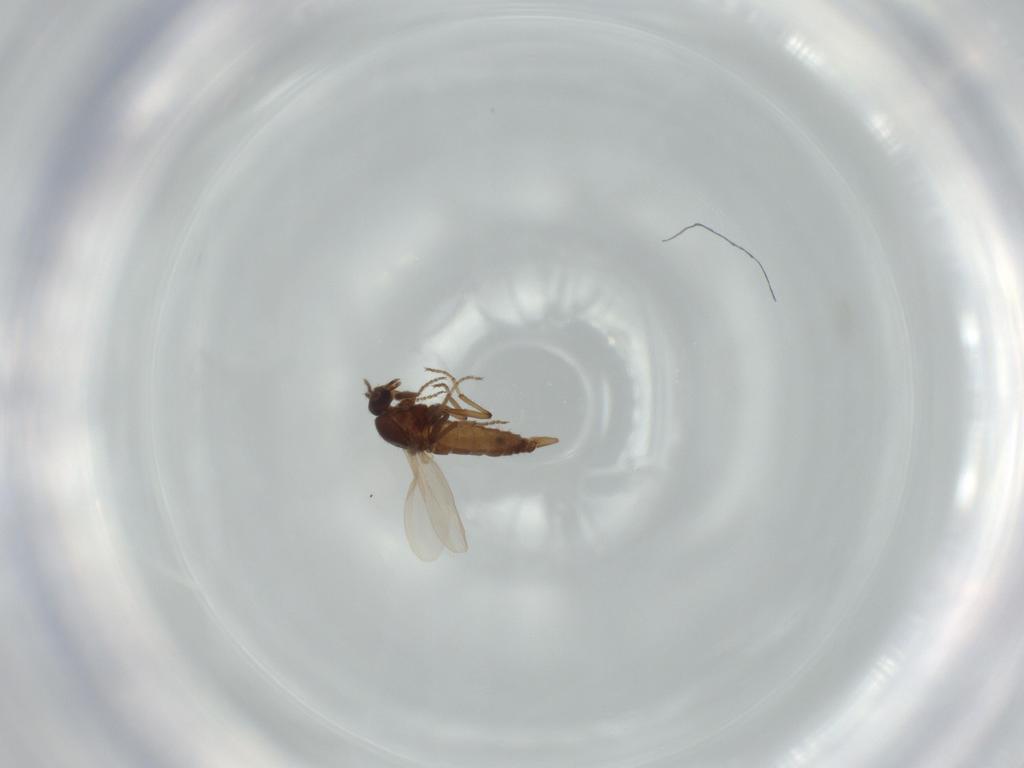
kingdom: Animalia
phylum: Arthropoda
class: Insecta
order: Diptera
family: Ceratopogonidae
